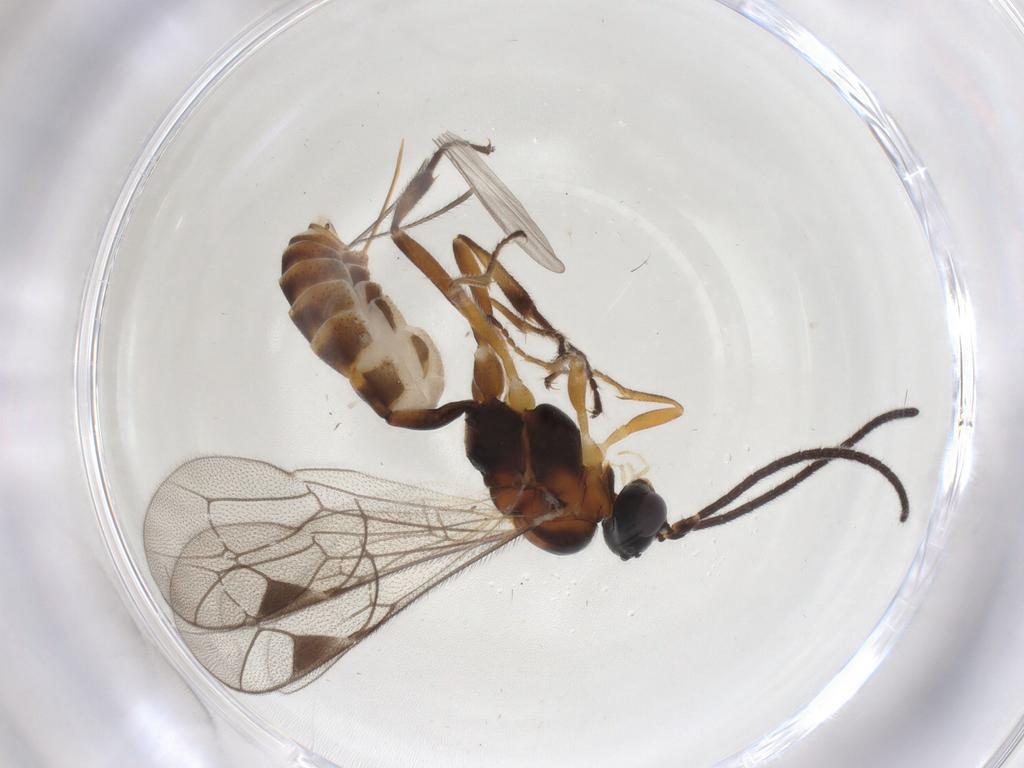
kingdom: Animalia
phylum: Arthropoda
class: Insecta
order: Hymenoptera
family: Ichneumonidae
